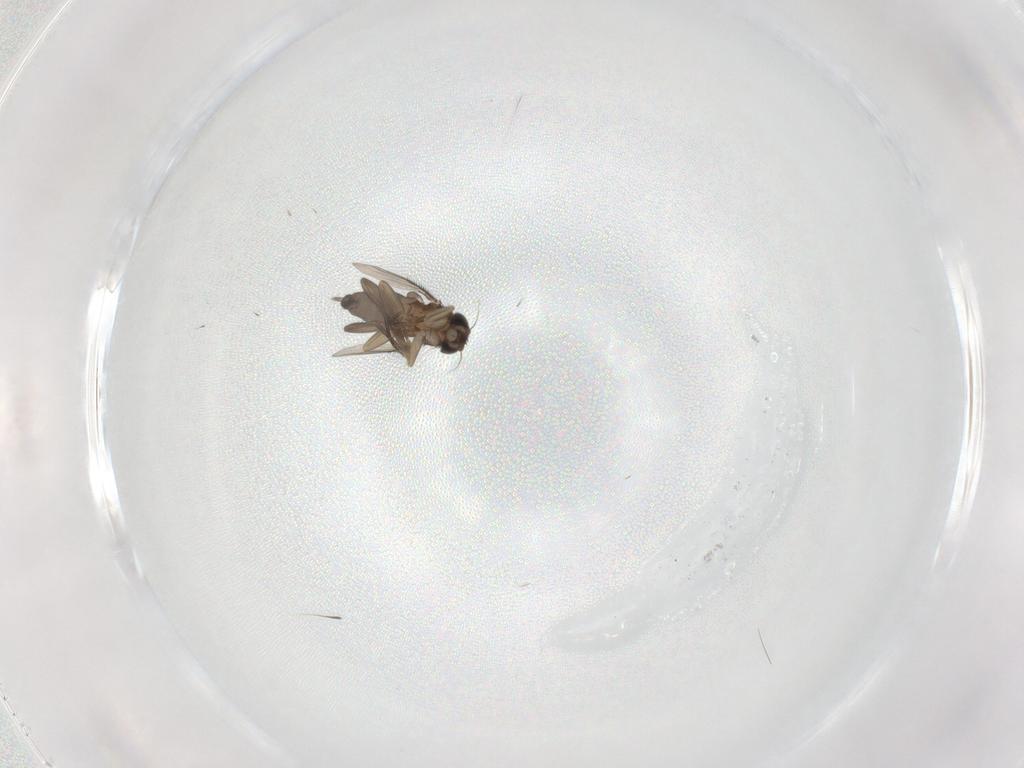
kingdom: Animalia
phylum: Arthropoda
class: Insecta
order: Diptera
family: Phoridae
